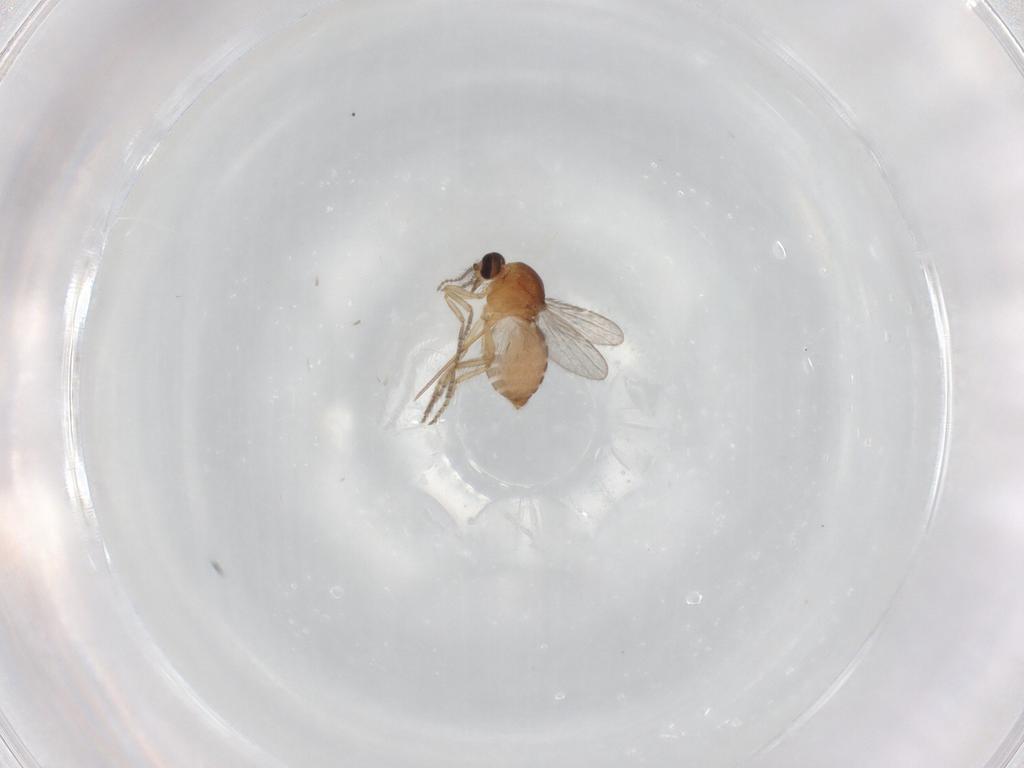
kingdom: Animalia
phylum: Arthropoda
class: Insecta
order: Diptera
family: Ceratopogonidae
